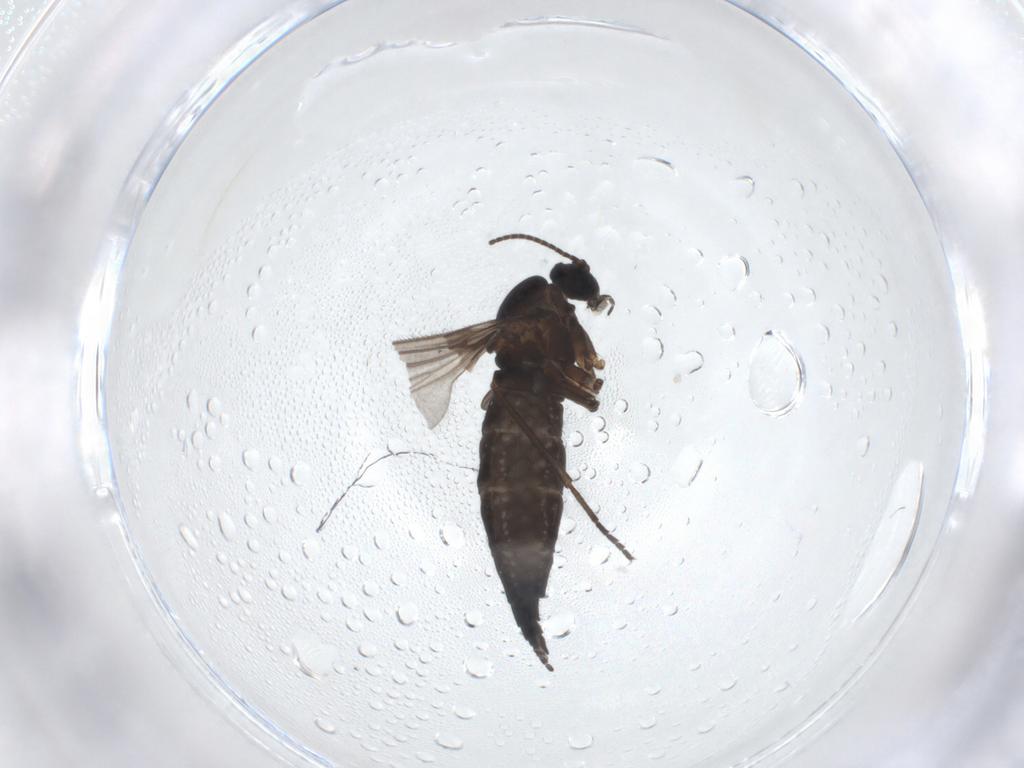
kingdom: Animalia
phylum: Arthropoda
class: Insecta
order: Diptera
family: Sciaridae
